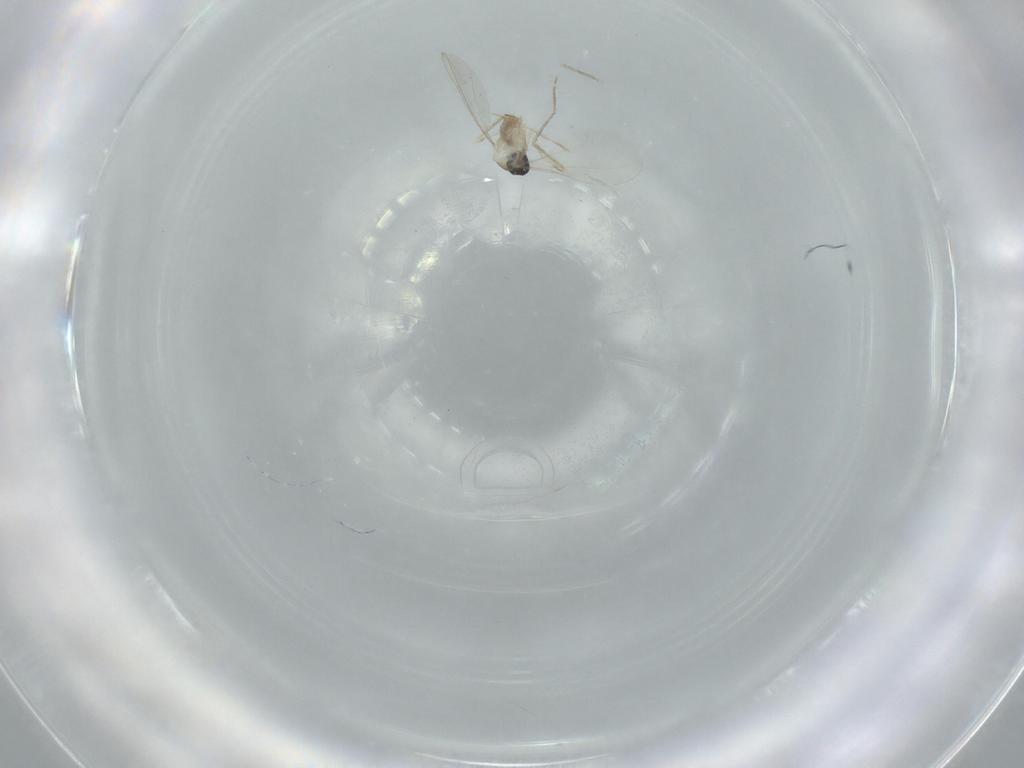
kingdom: Animalia
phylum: Arthropoda
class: Insecta
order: Diptera
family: Cecidomyiidae
